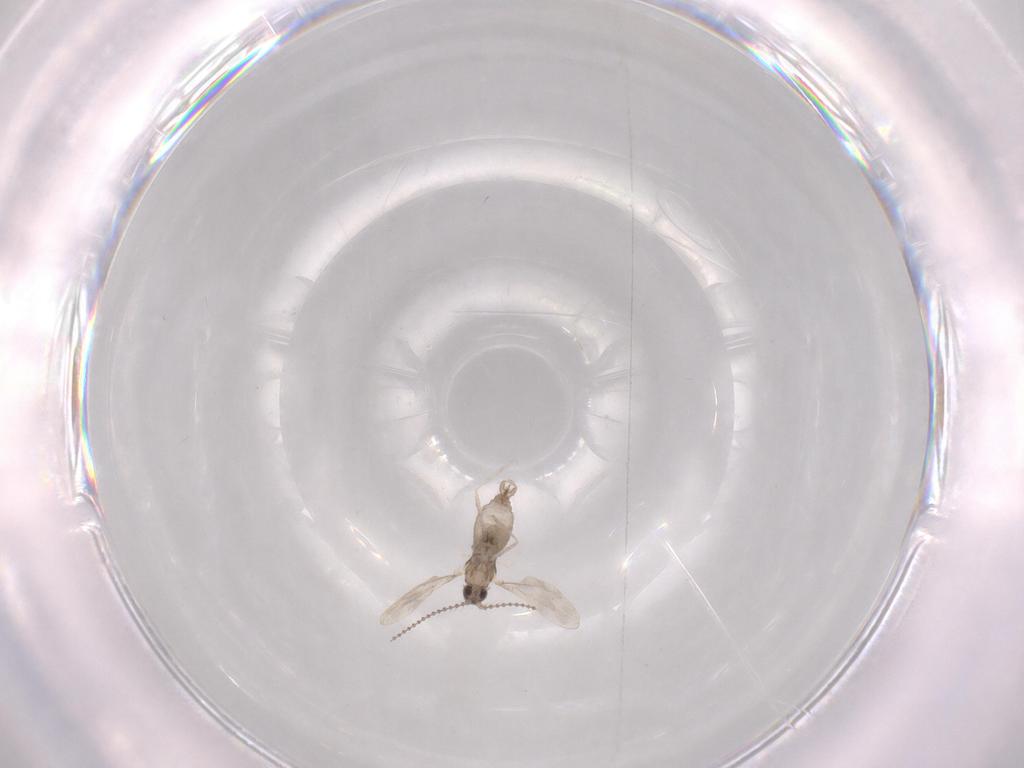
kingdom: Animalia
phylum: Arthropoda
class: Insecta
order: Diptera
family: Cecidomyiidae
